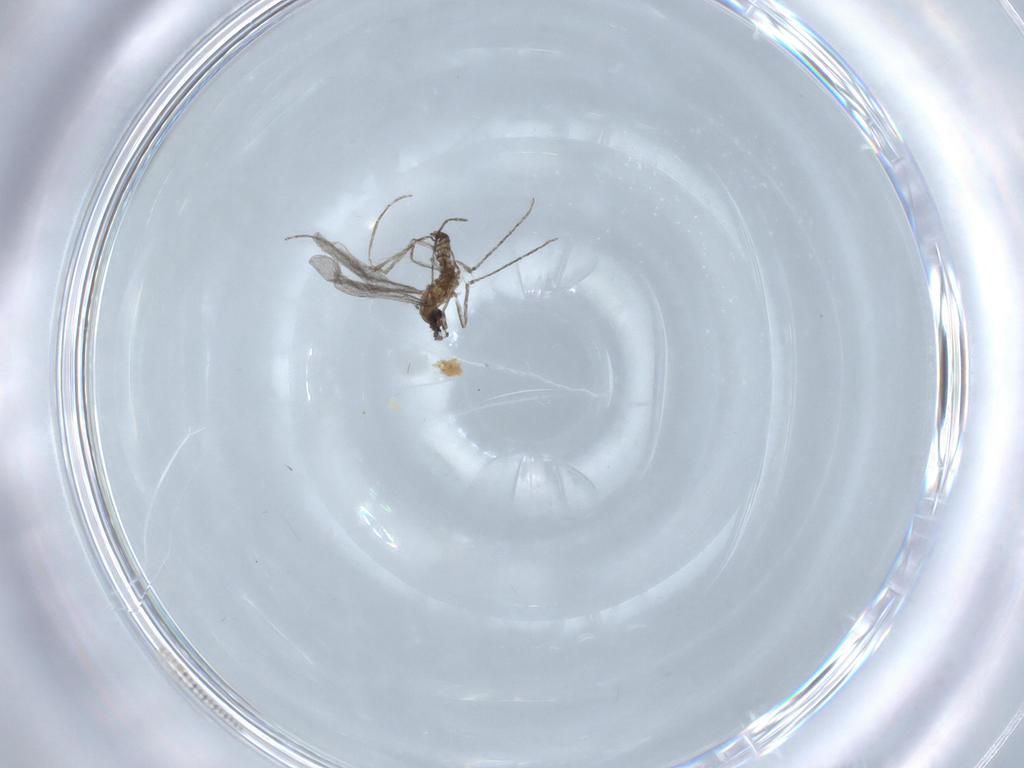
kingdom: Animalia
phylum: Arthropoda
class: Insecta
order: Diptera
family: Cecidomyiidae
